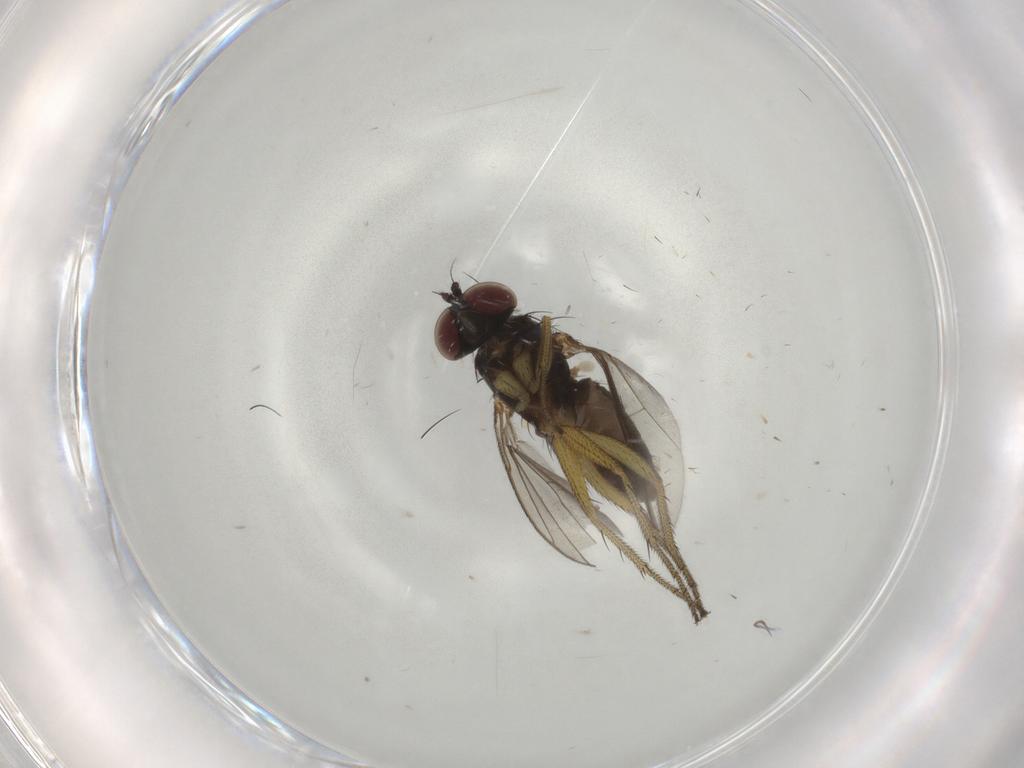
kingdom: Animalia
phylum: Arthropoda
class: Insecta
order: Diptera
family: Dolichopodidae
